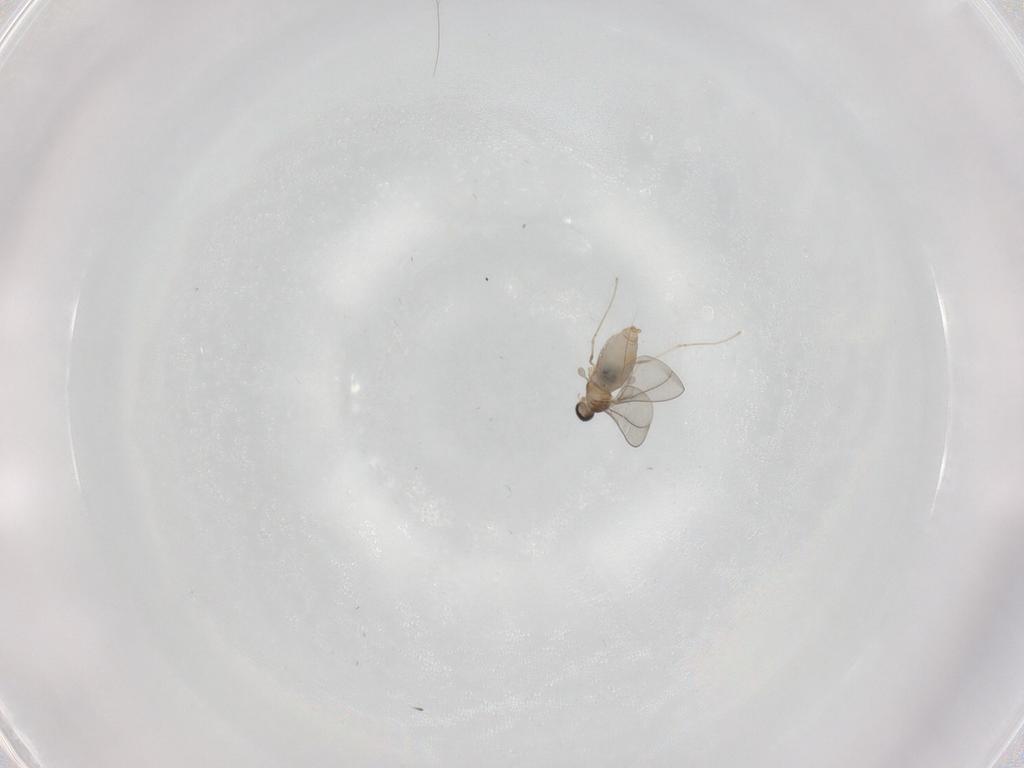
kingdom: Animalia
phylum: Arthropoda
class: Insecta
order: Diptera
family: Cecidomyiidae
